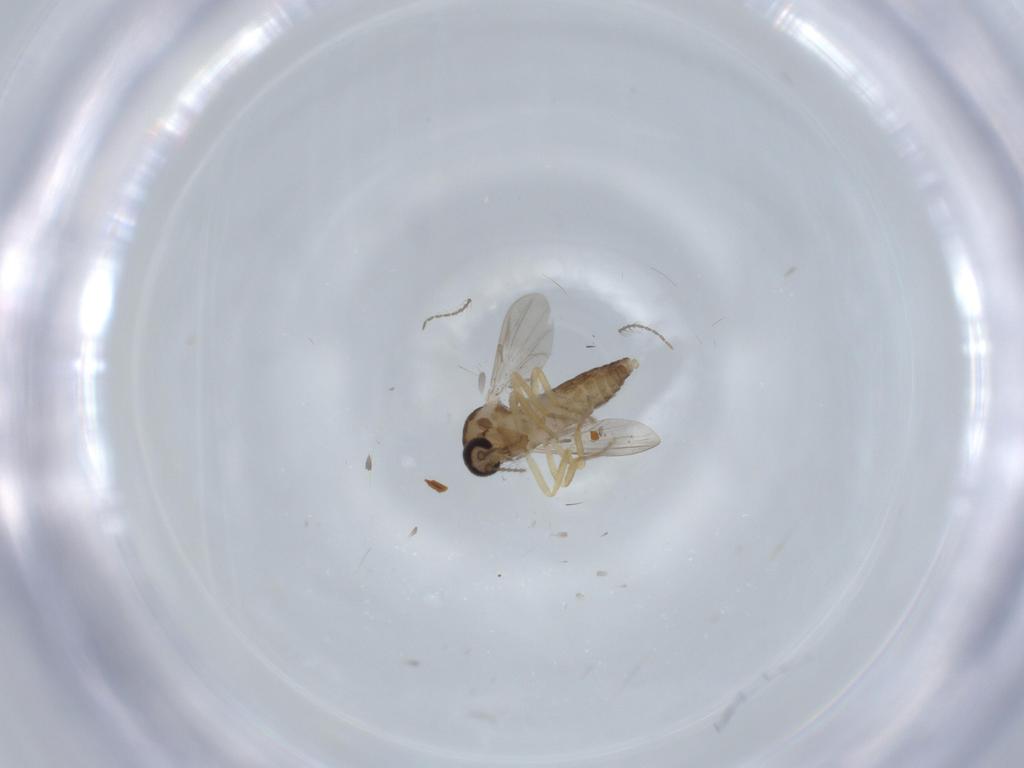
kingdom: Animalia
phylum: Arthropoda
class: Insecta
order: Diptera
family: Ceratopogonidae
